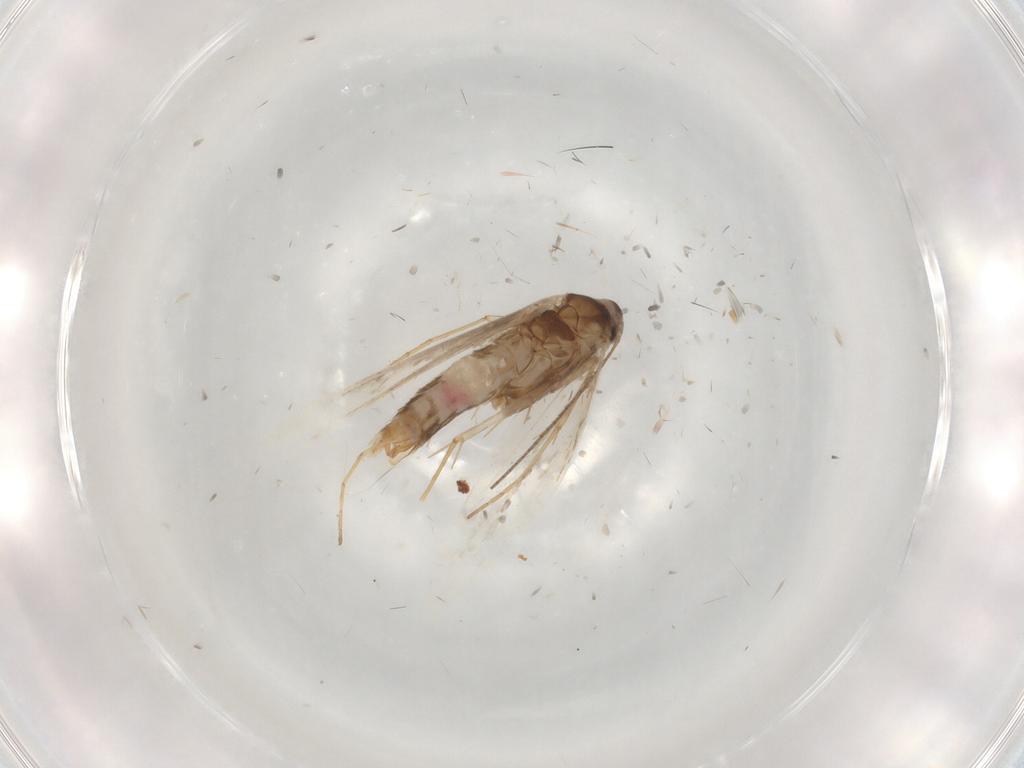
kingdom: Animalia
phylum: Arthropoda
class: Insecta
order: Lepidoptera
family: Gracillariidae
